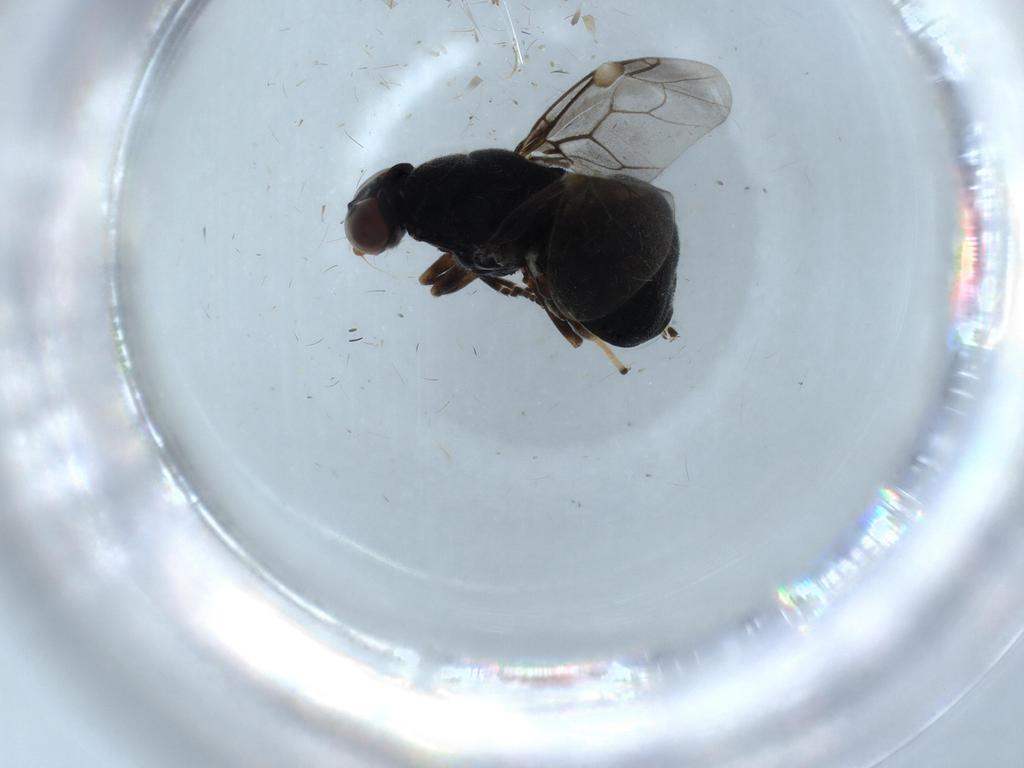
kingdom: Animalia
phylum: Arthropoda
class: Insecta
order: Diptera
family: Stratiomyidae
